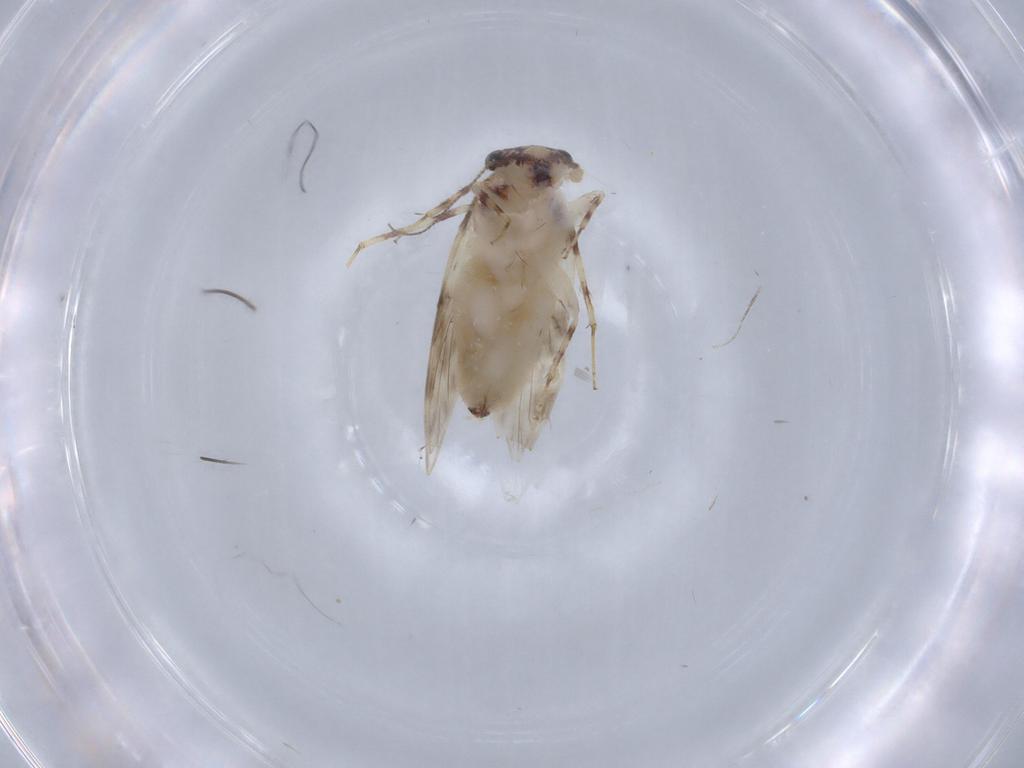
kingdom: Animalia
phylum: Arthropoda
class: Insecta
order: Psocodea
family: Lepidopsocidae
